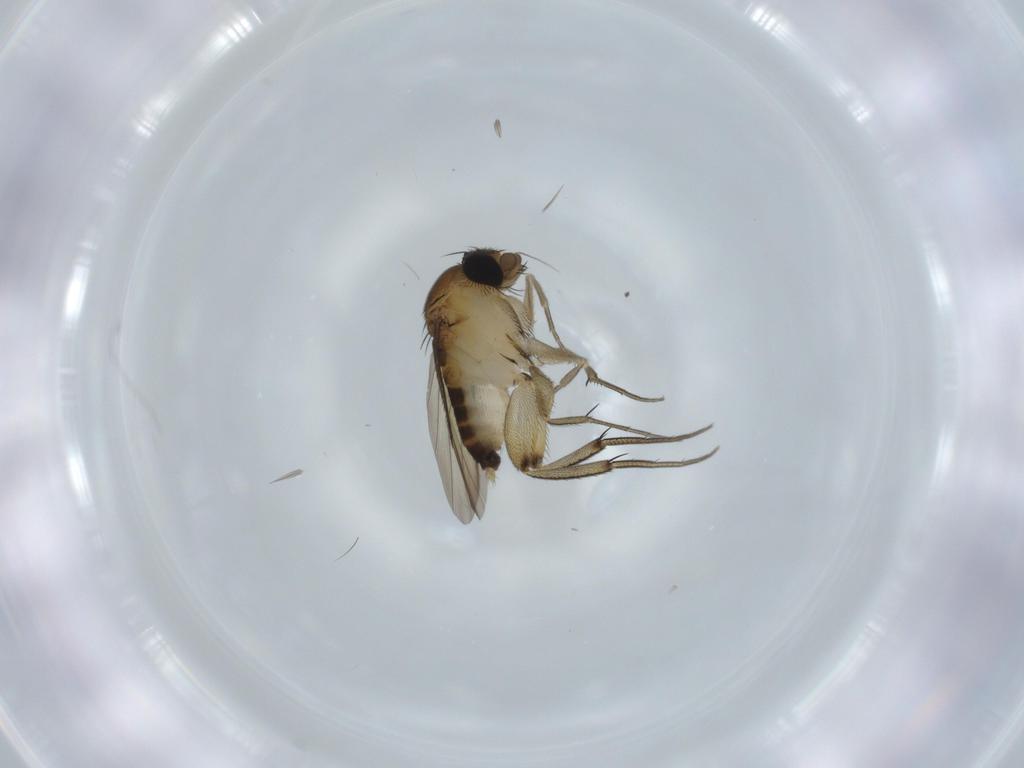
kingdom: Animalia
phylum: Arthropoda
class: Insecta
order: Diptera
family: Phoridae
